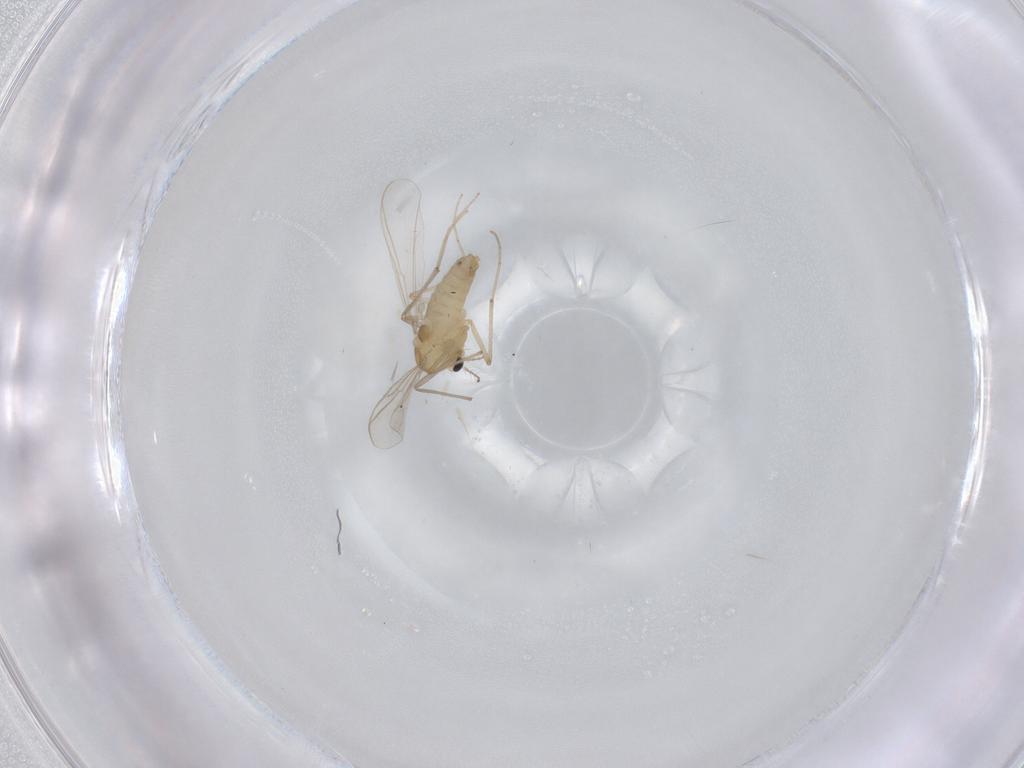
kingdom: Animalia
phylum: Arthropoda
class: Insecta
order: Diptera
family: Chironomidae
